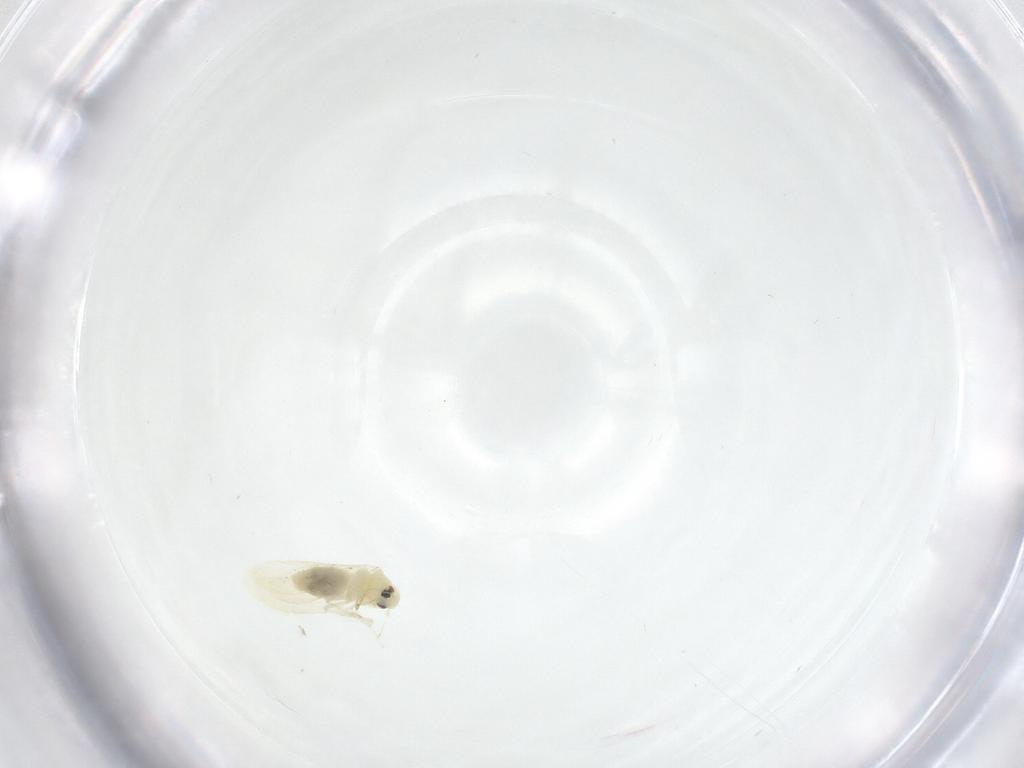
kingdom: Animalia
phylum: Arthropoda
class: Insecta
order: Hemiptera
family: Aleyrodidae
